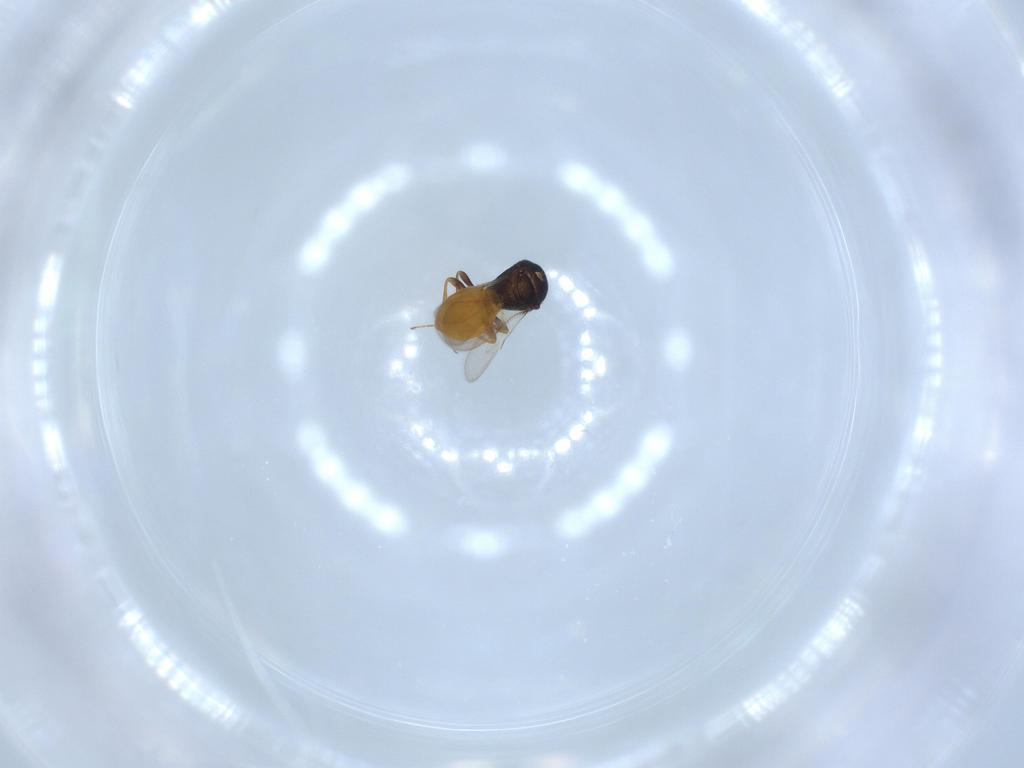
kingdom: Animalia
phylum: Arthropoda
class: Insecta
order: Hymenoptera
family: Scelionidae
